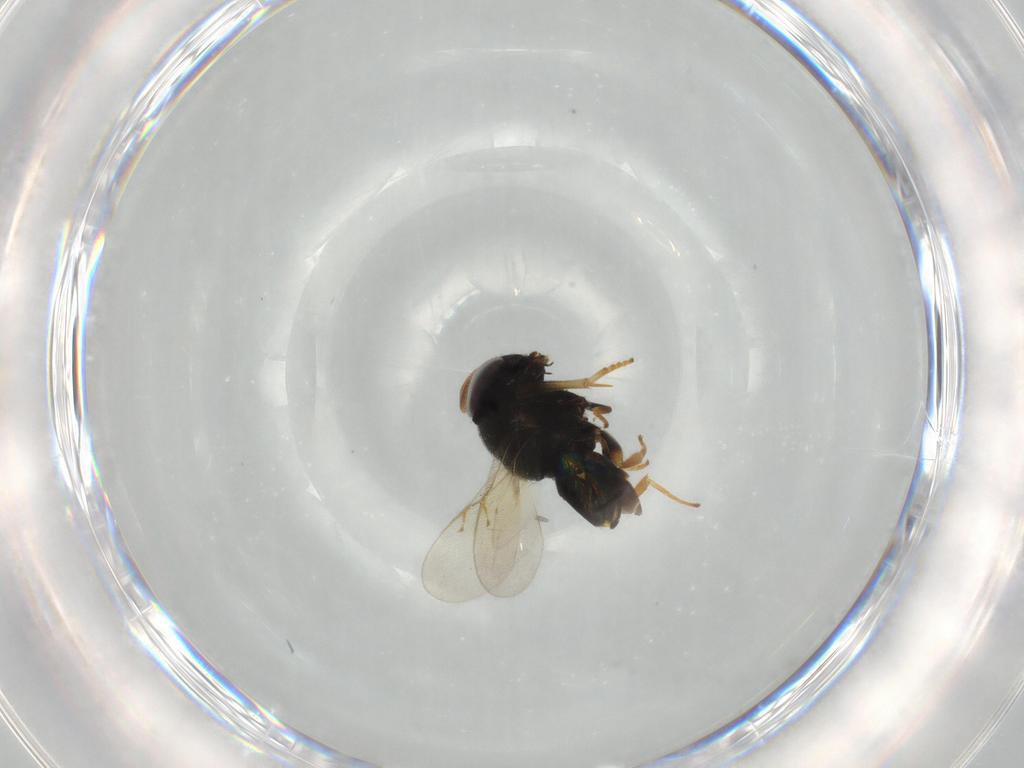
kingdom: Animalia
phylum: Arthropoda
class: Insecta
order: Hymenoptera
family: Encyrtidae
